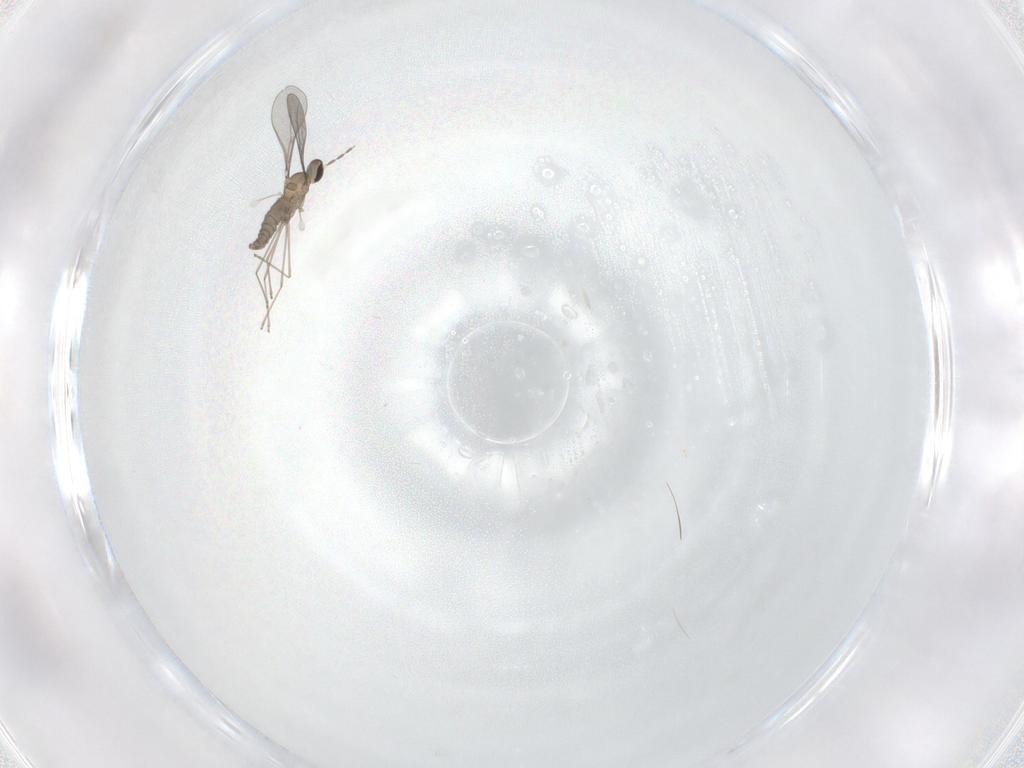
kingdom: Animalia
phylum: Arthropoda
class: Insecta
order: Diptera
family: Cecidomyiidae
